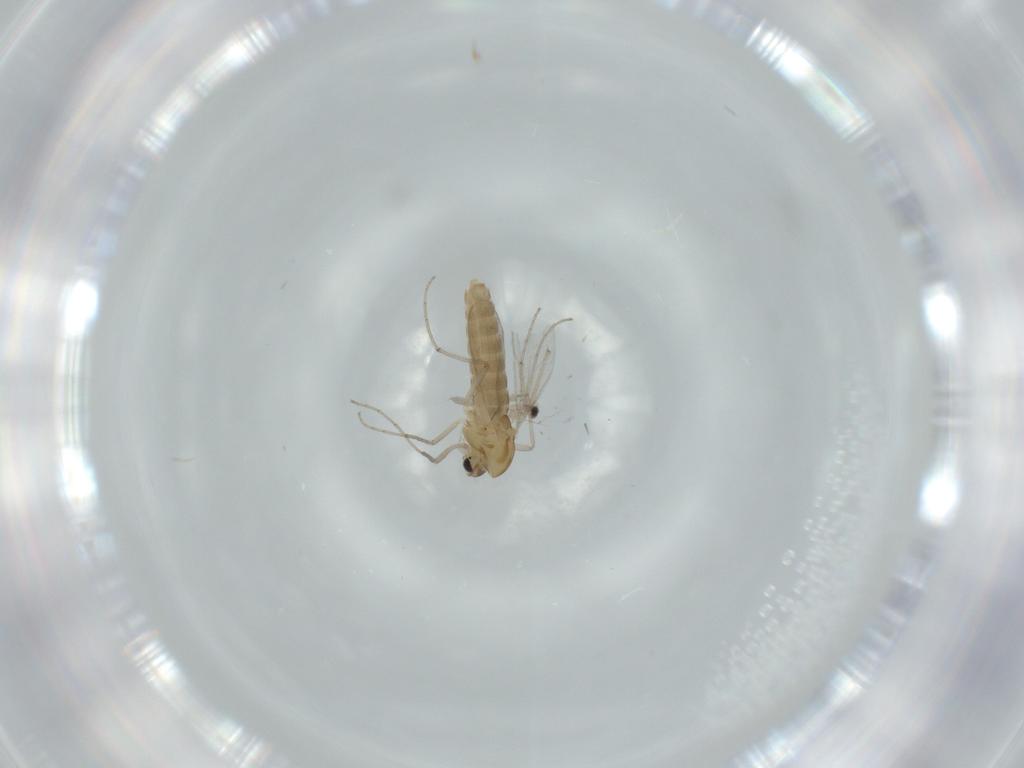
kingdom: Animalia
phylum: Arthropoda
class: Insecta
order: Diptera
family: Chironomidae
